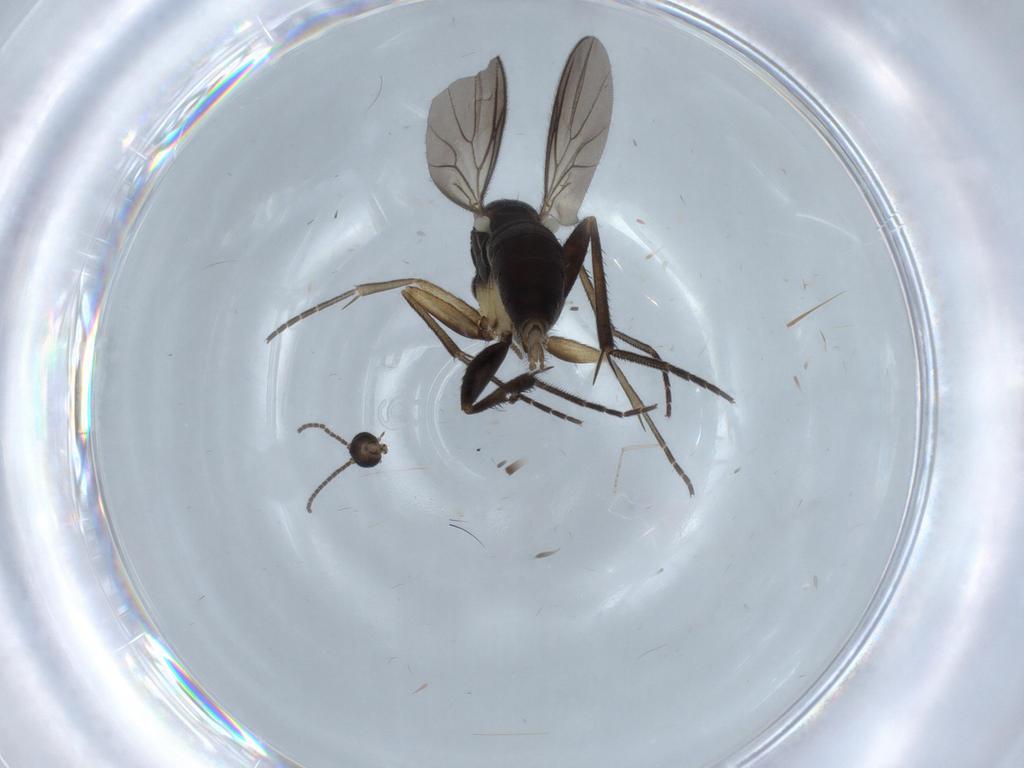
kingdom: Animalia
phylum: Arthropoda
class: Insecta
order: Diptera
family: Sciaridae
